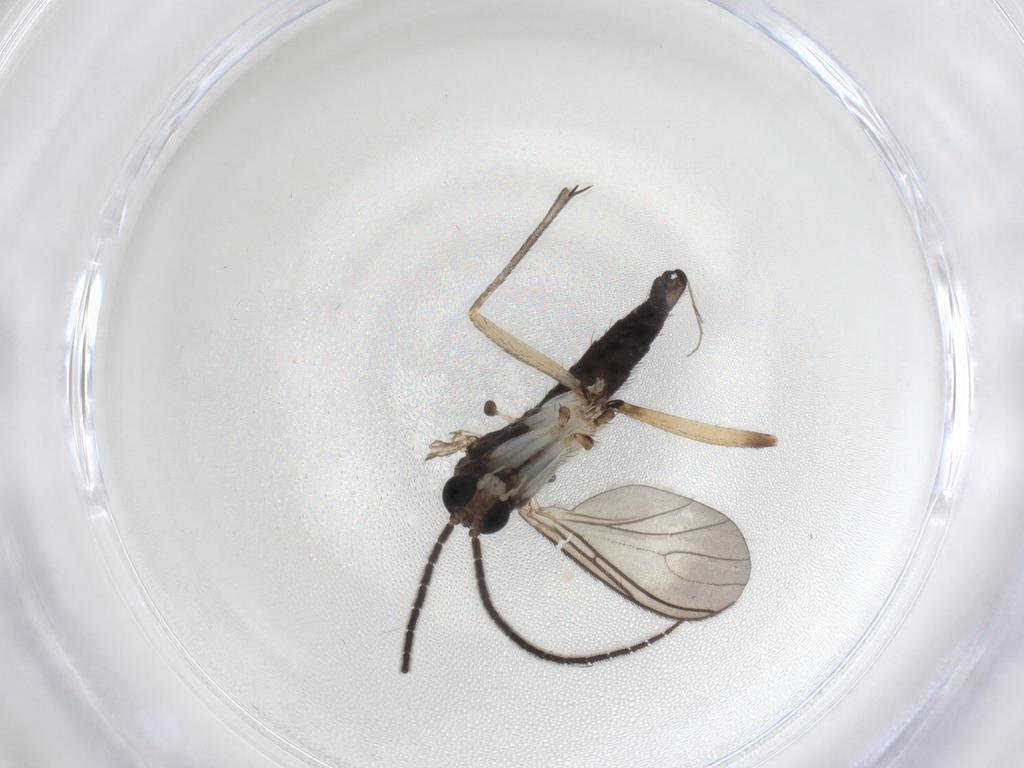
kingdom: Animalia
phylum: Arthropoda
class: Insecta
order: Diptera
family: Sciaridae
